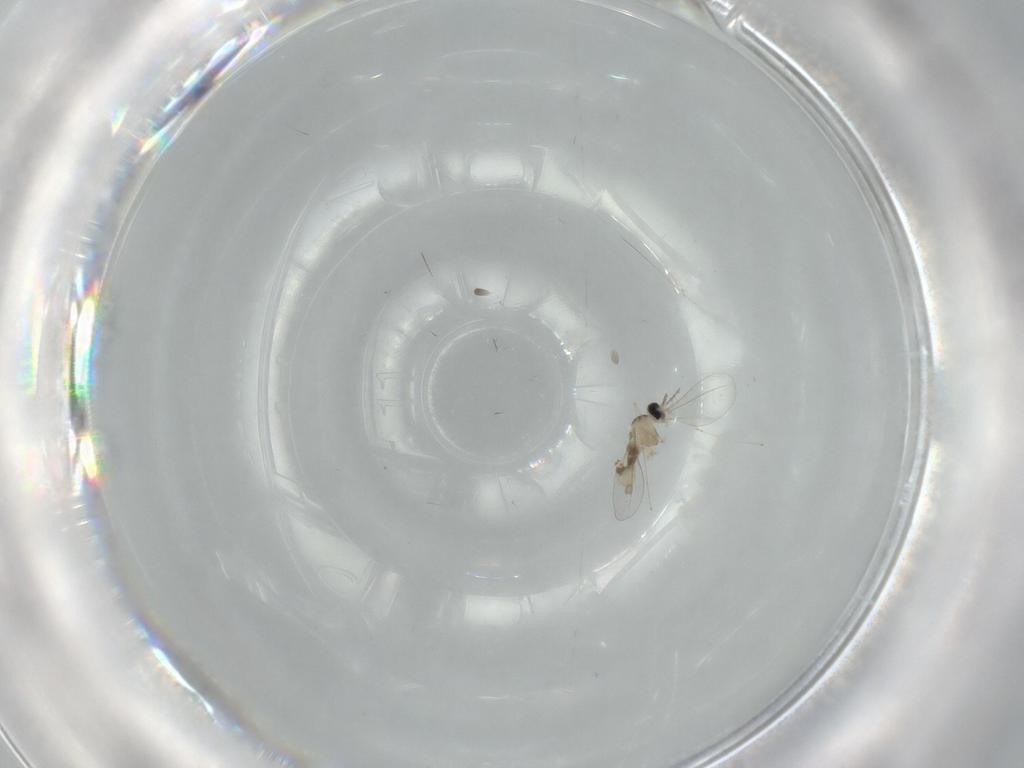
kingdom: Animalia
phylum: Arthropoda
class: Insecta
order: Diptera
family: Cecidomyiidae
